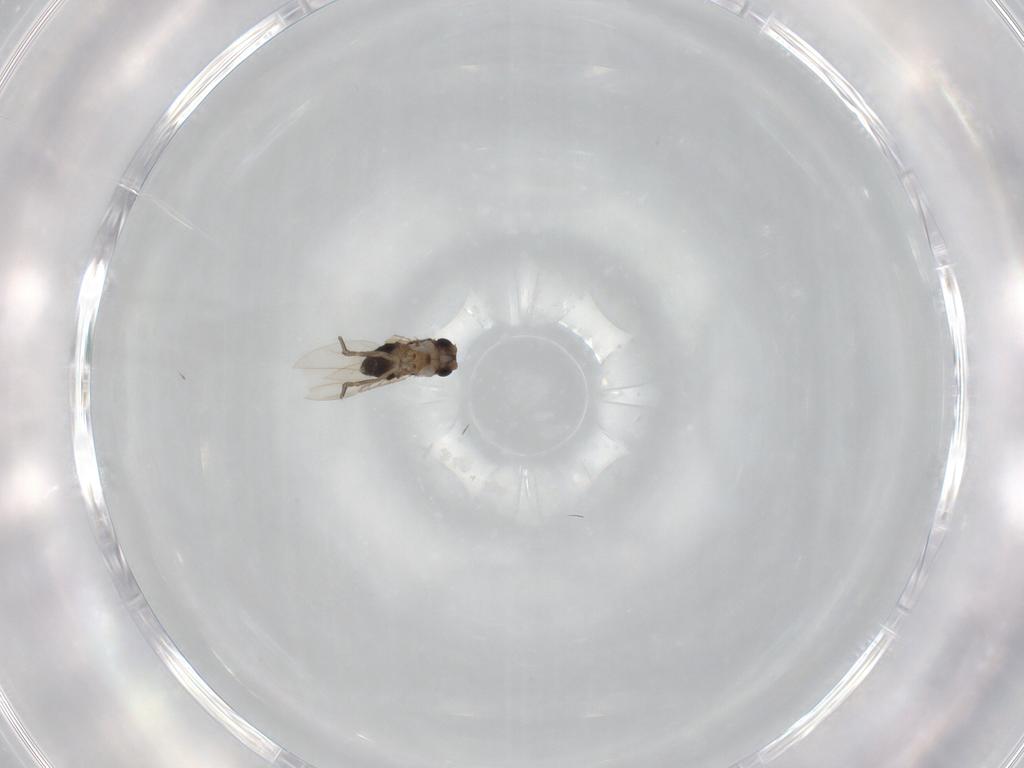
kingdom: Animalia
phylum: Arthropoda
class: Insecta
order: Diptera
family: Phoridae
